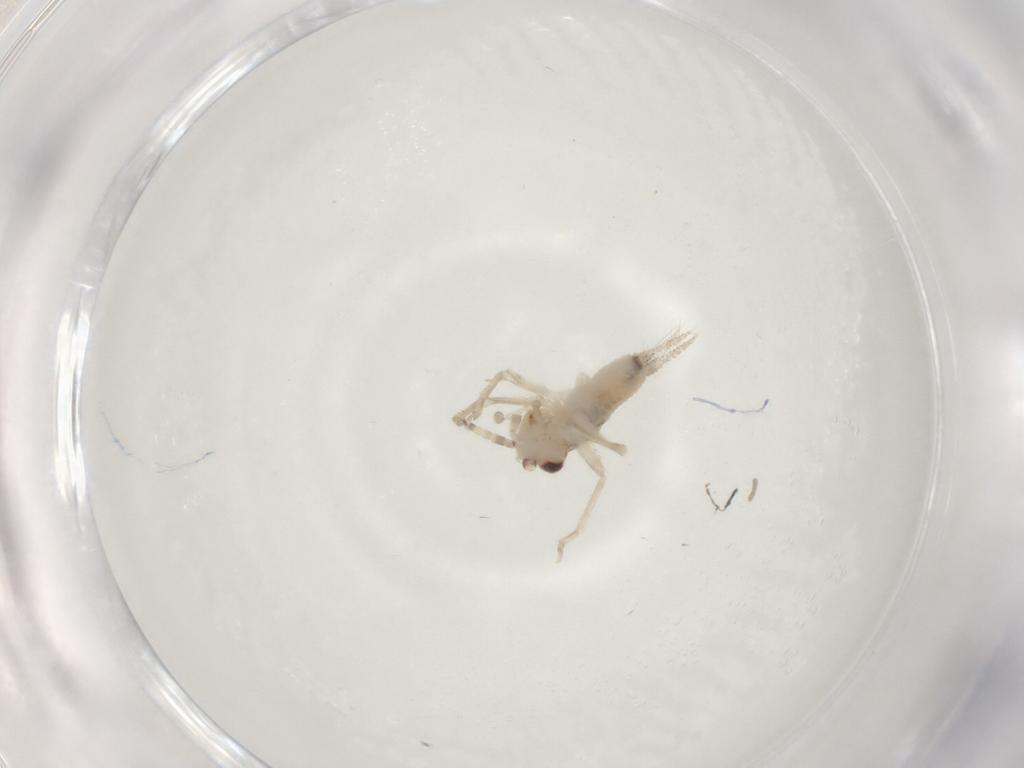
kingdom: Animalia
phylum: Arthropoda
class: Insecta
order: Orthoptera
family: Trigonidiidae
